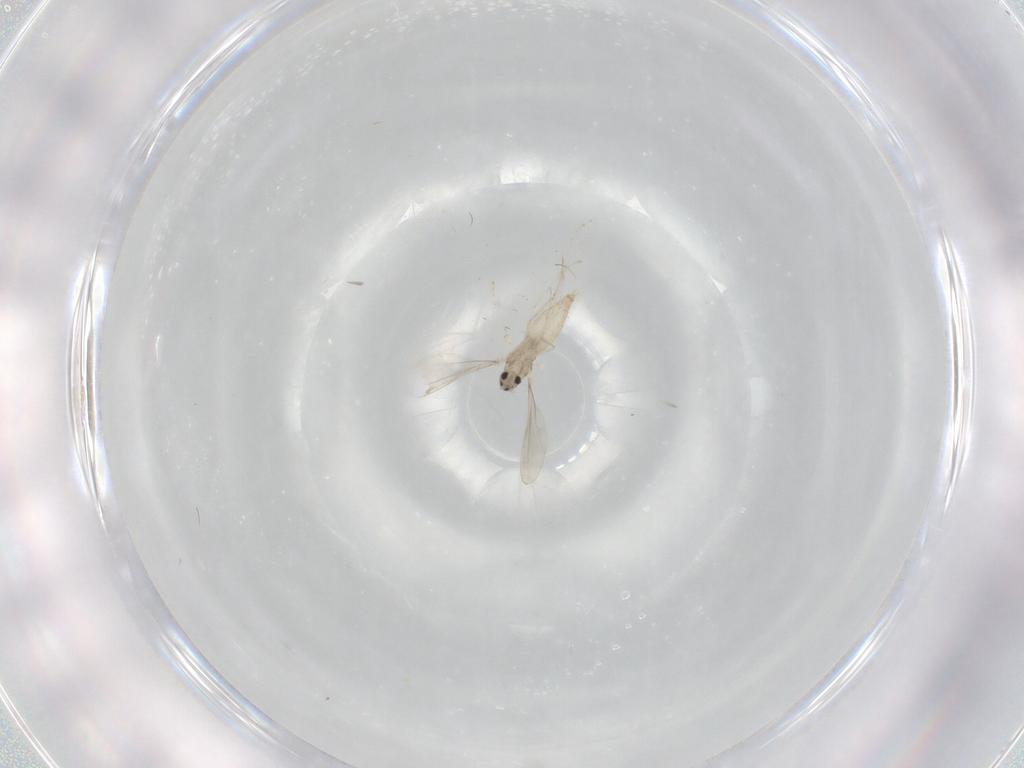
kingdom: Animalia
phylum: Arthropoda
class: Insecta
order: Diptera
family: Cecidomyiidae
